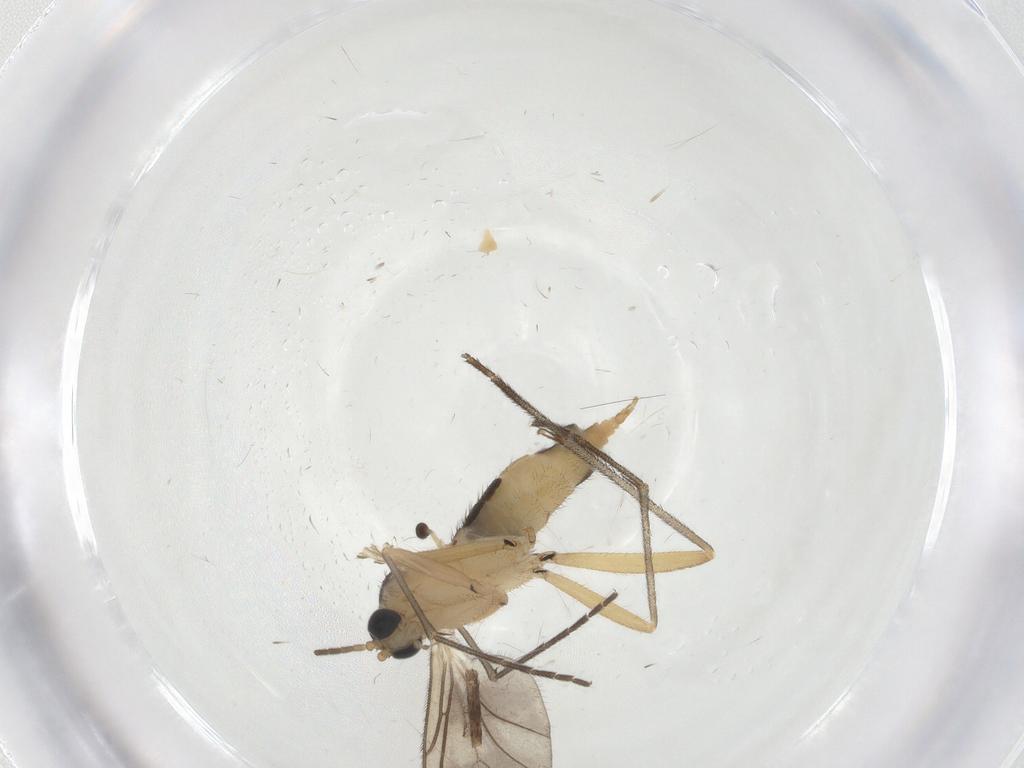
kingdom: Animalia
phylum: Arthropoda
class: Insecta
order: Diptera
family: Sciaridae
